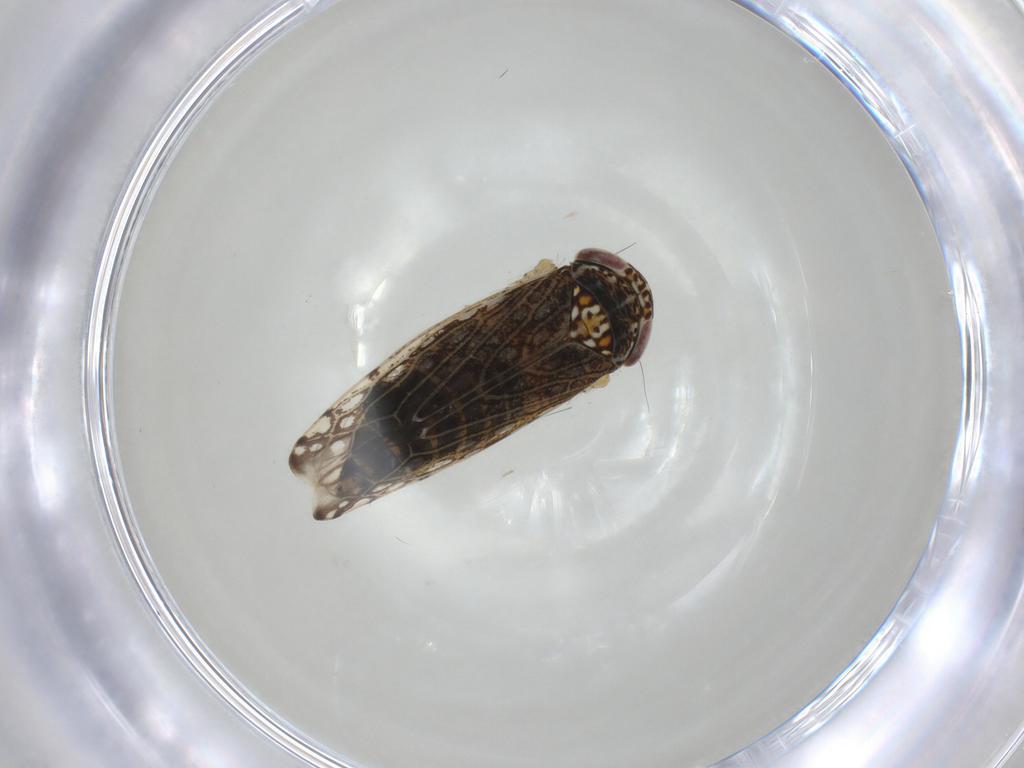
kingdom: Animalia
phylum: Arthropoda
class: Insecta
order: Hemiptera
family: Cicadellidae
